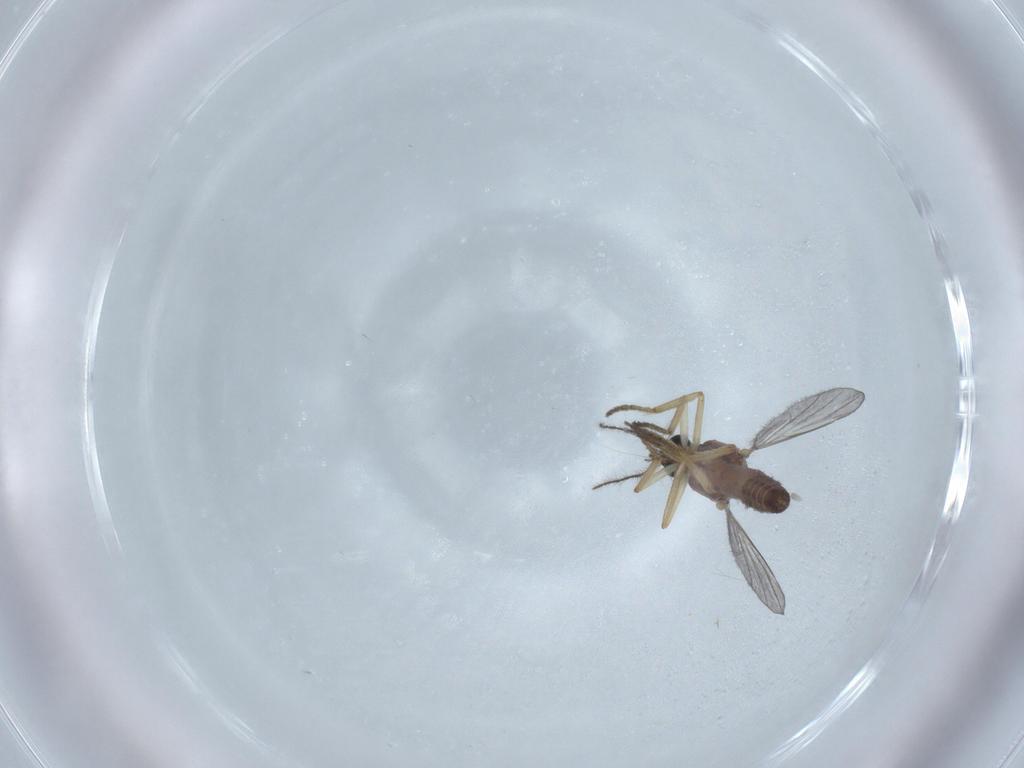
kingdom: Animalia
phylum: Arthropoda
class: Insecta
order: Diptera
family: Ceratopogonidae
